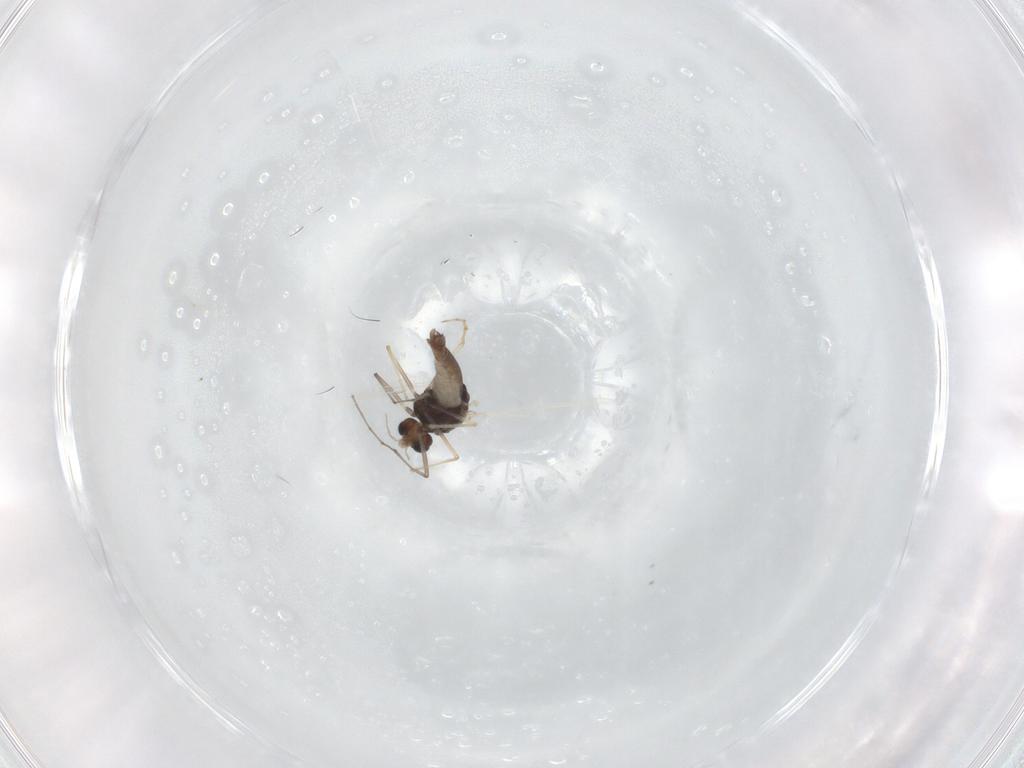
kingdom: Animalia
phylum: Arthropoda
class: Insecta
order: Diptera
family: Chironomidae
